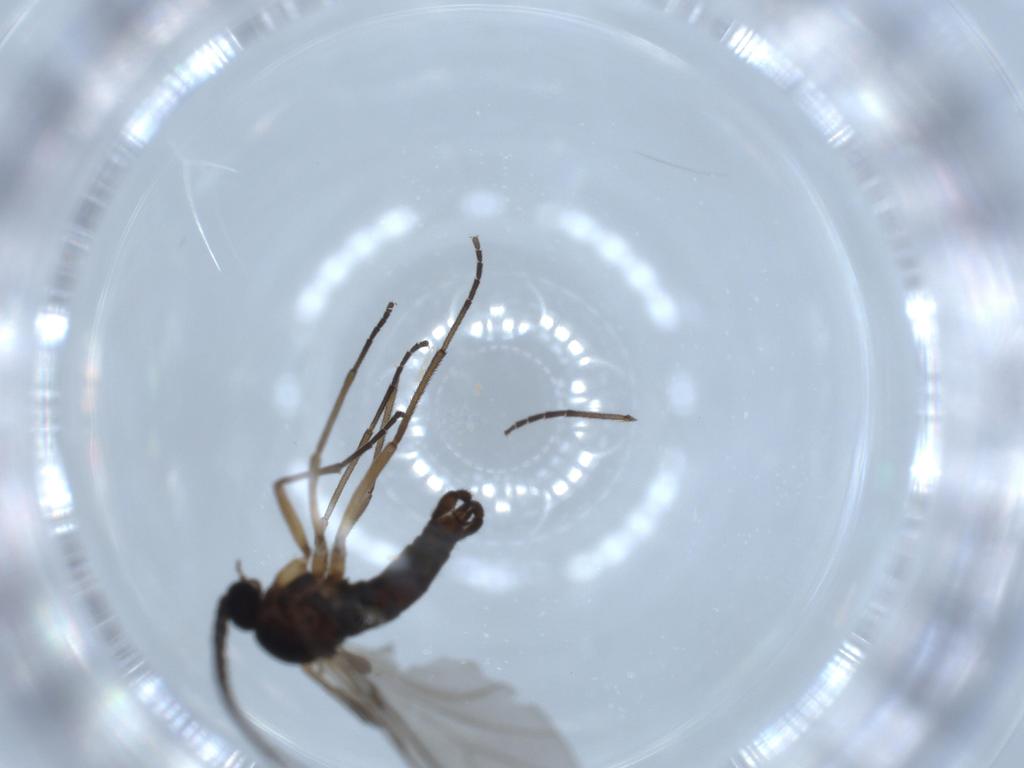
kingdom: Animalia
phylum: Arthropoda
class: Insecta
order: Diptera
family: Sciaridae
